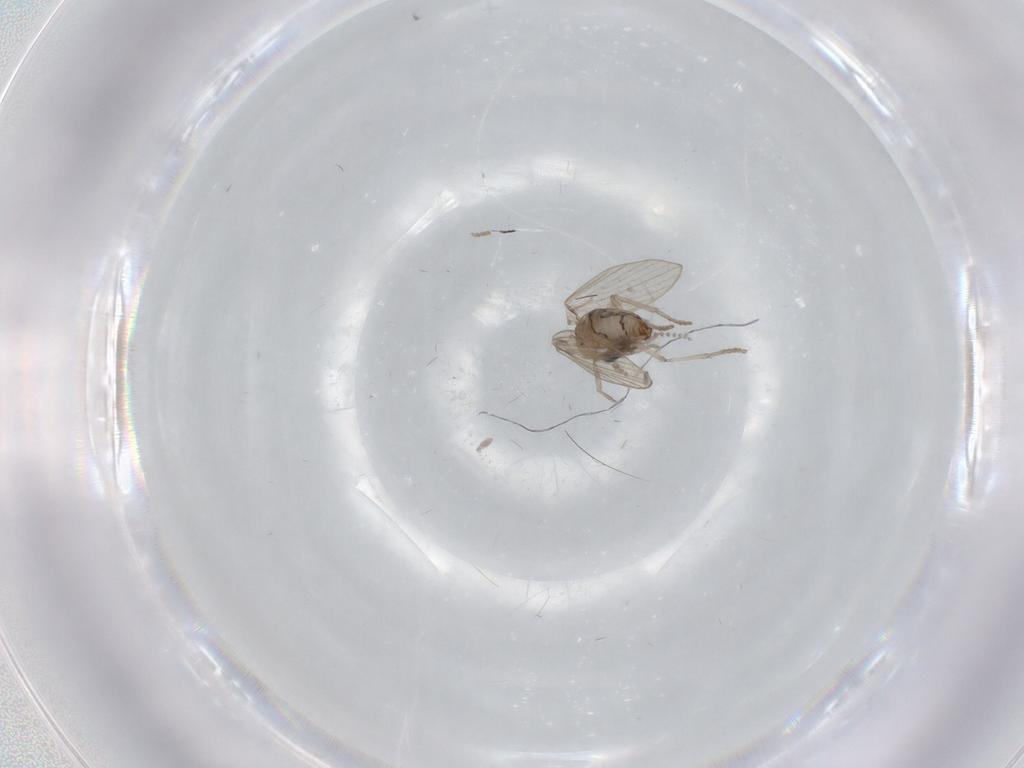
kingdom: Animalia
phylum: Arthropoda
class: Insecta
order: Diptera
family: Psychodidae
